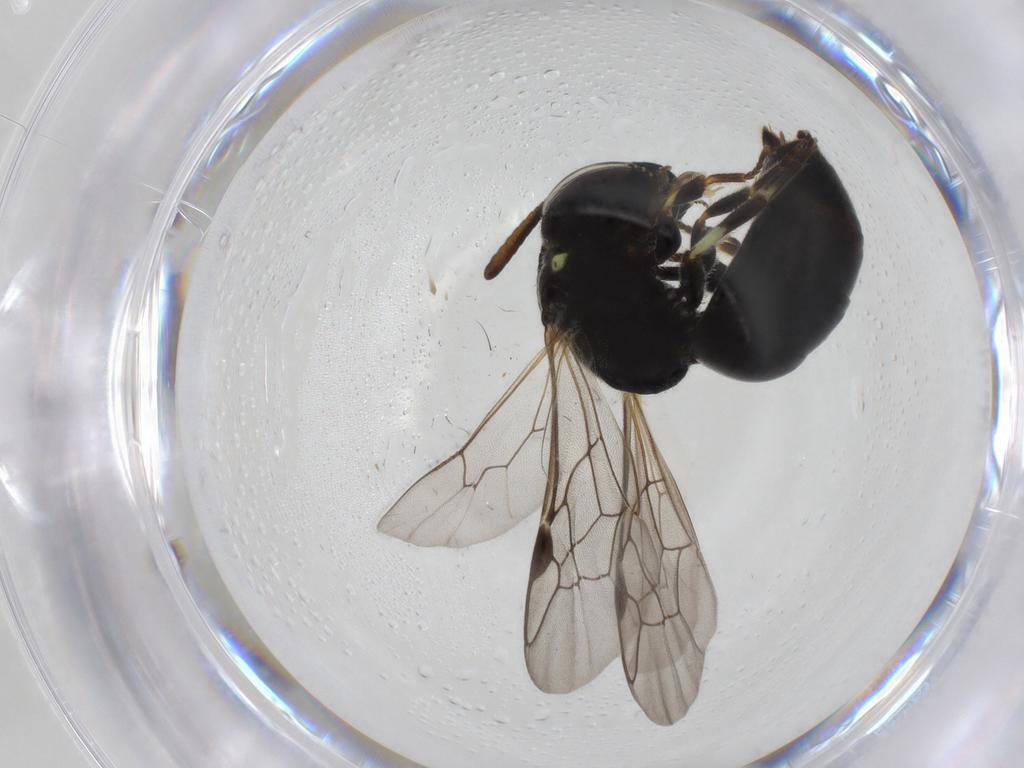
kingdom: Animalia
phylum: Arthropoda
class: Insecta
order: Hymenoptera
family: Colletidae
